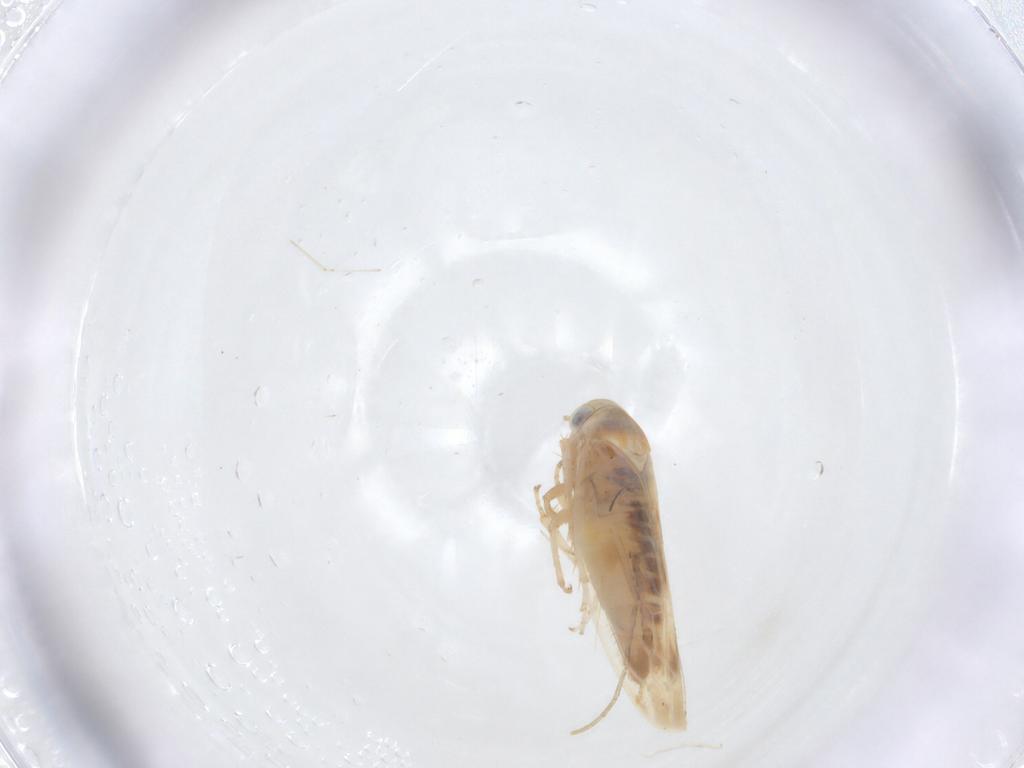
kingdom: Animalia
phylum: Arthropoda
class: Insecta
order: Hemiptera
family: Cicadellidae
